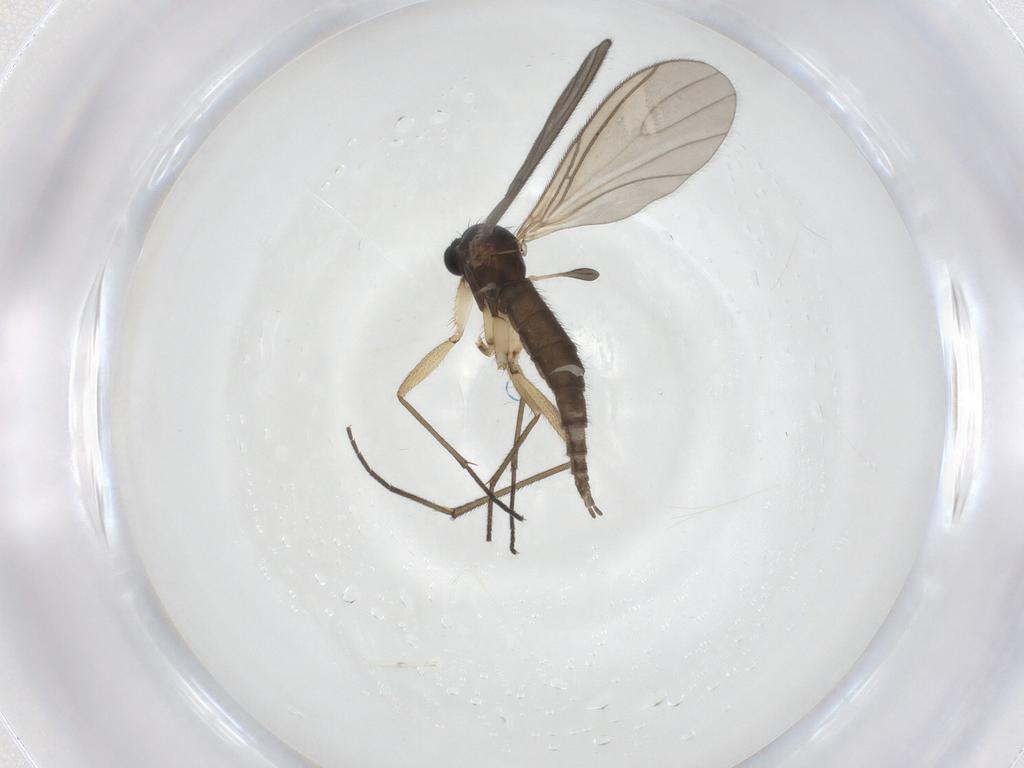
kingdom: Animalia
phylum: Arthropoda
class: Insecta
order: Diptera
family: Sciaridae
